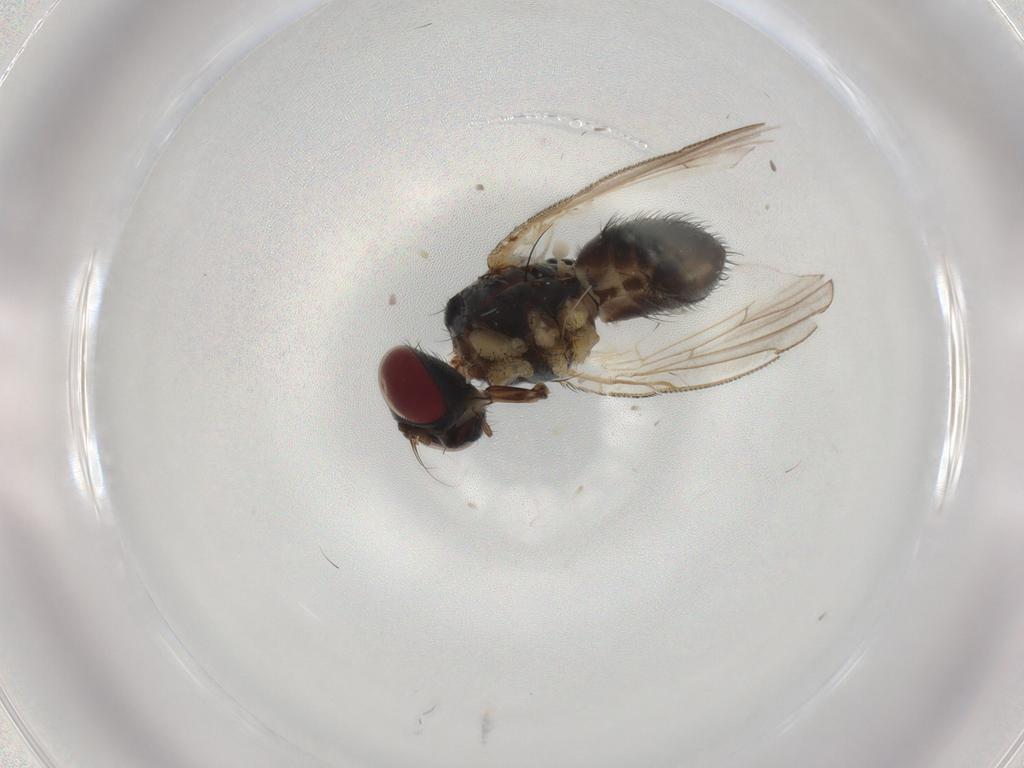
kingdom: Animalia
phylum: Arthropoda
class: Insecta
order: Diptera
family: Muscidae
